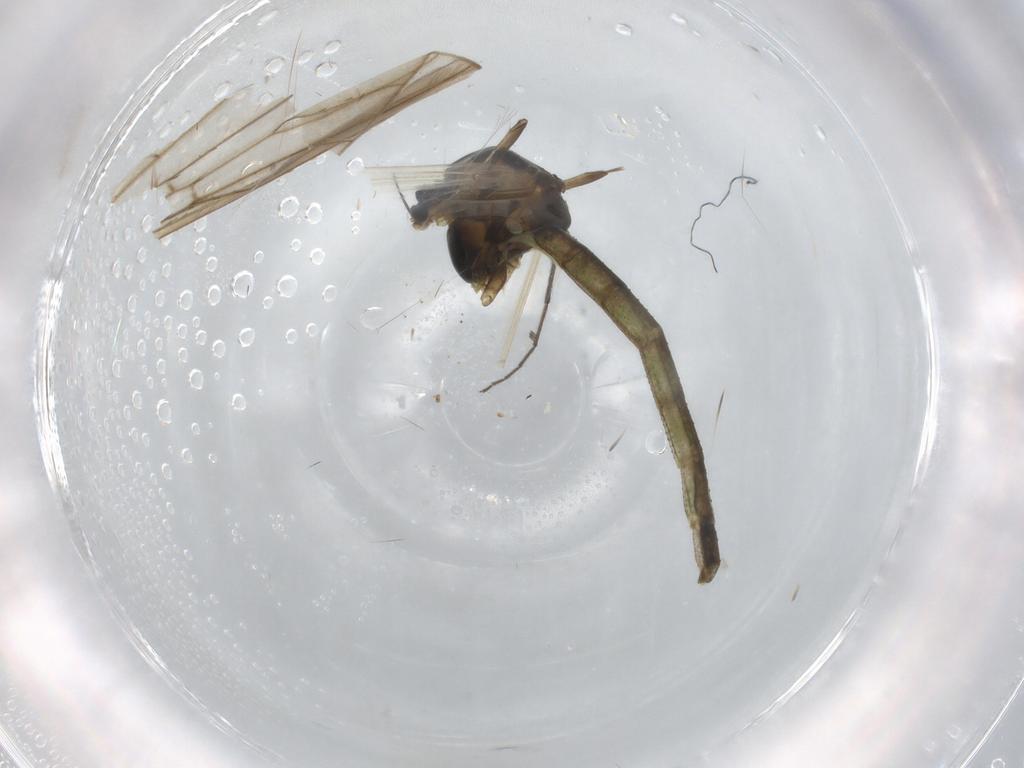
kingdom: Animalia
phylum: Arthropoda
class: Insecta
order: Diptera
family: Chironomidae
